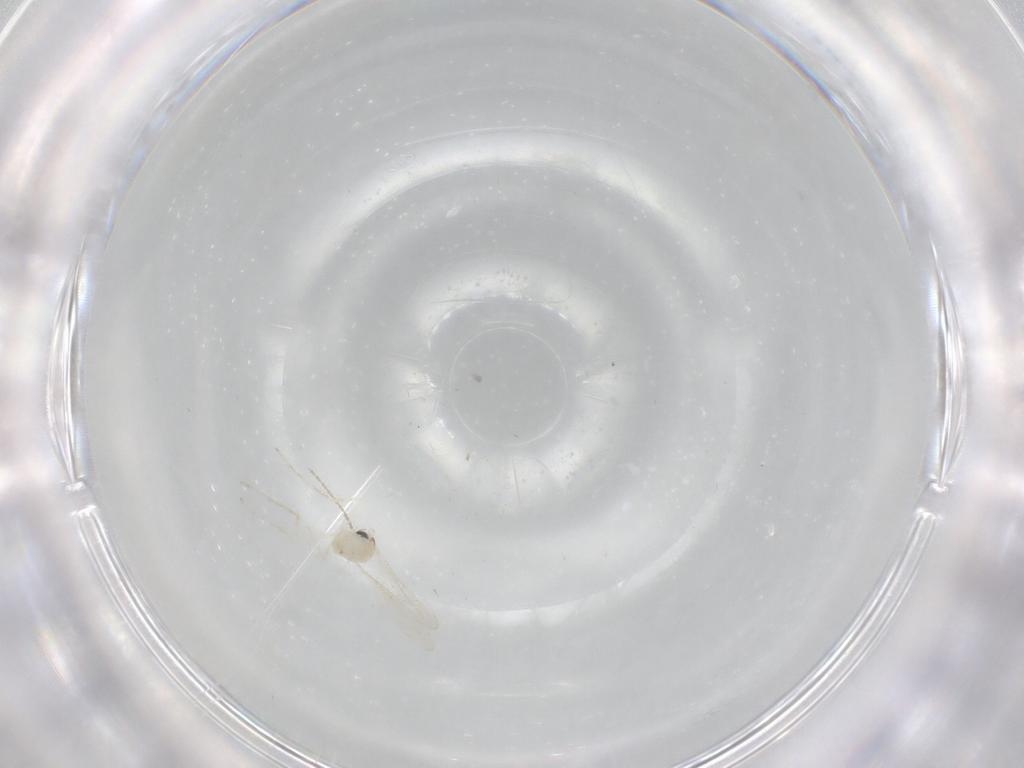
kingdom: Animalia
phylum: Arthropoda
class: Insecta
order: Diptera
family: Cecidomyiidae
